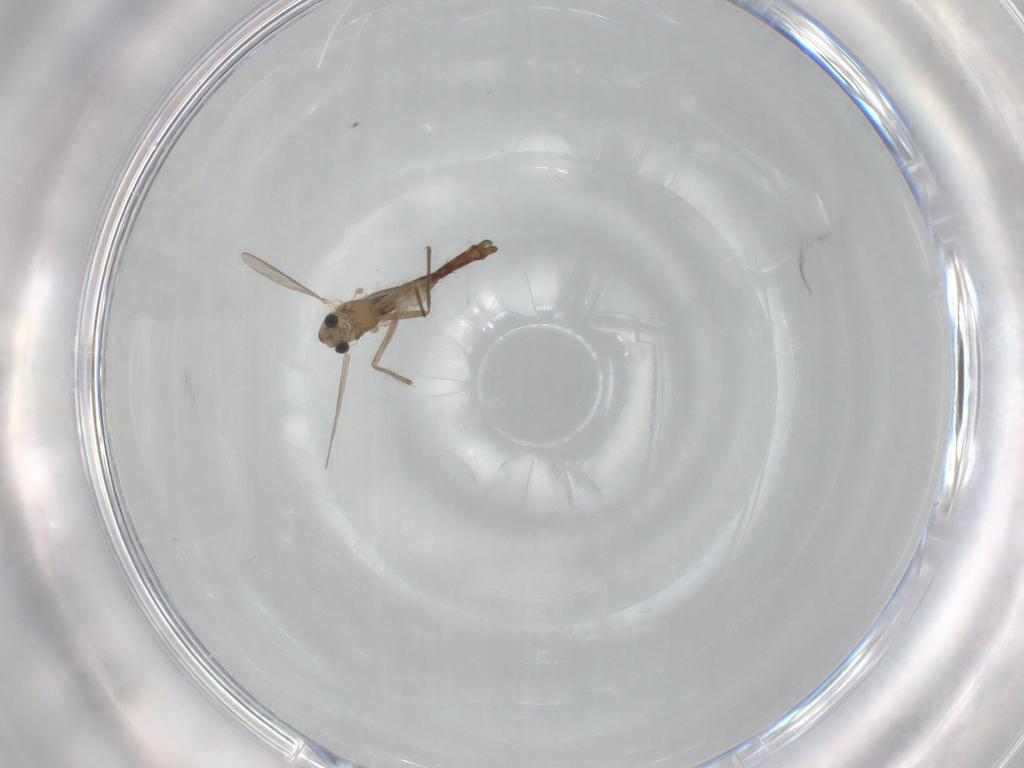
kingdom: Animalia
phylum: Arthropoda
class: Insecta
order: Diptera
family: Chironomidae
